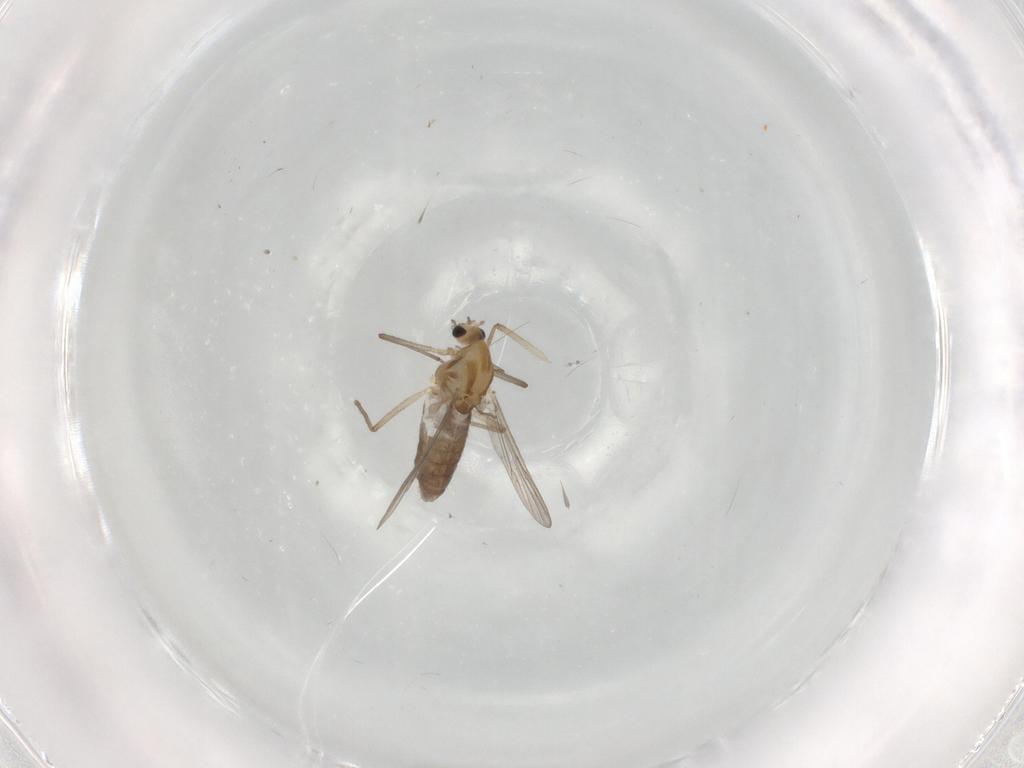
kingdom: Animalia
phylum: Arthropoda
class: Insecta
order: Diptera
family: Chironomidae
